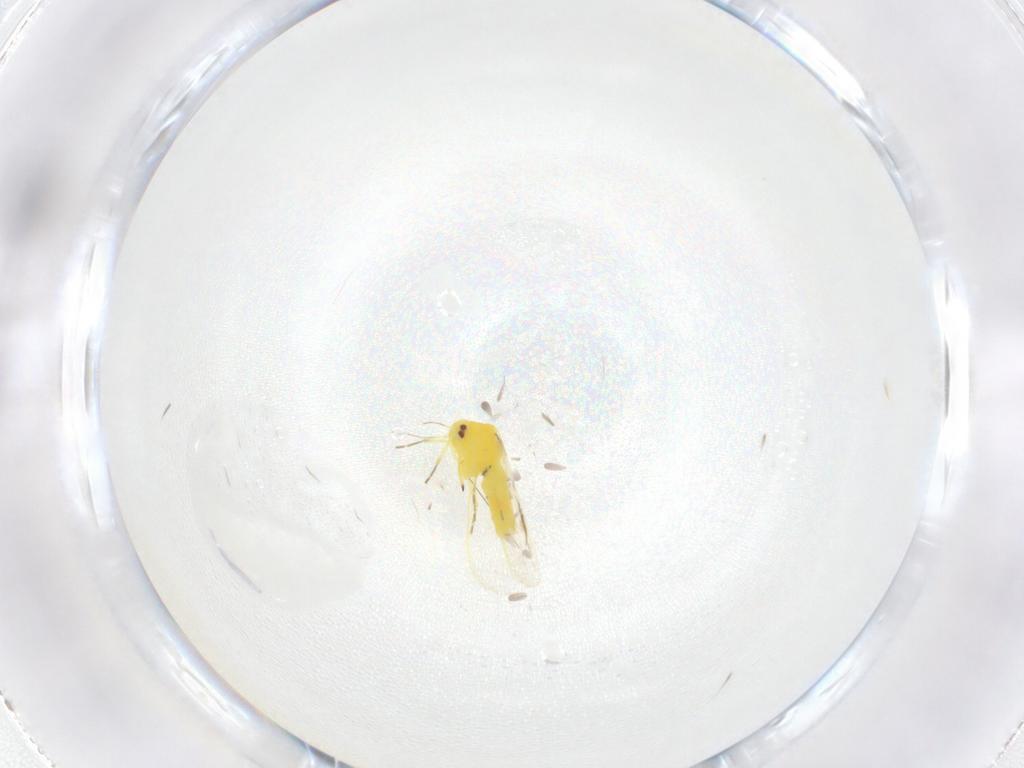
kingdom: Animalia
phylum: Arthropoda
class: Insecta
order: Hemiptera
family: Aleyrodidae
